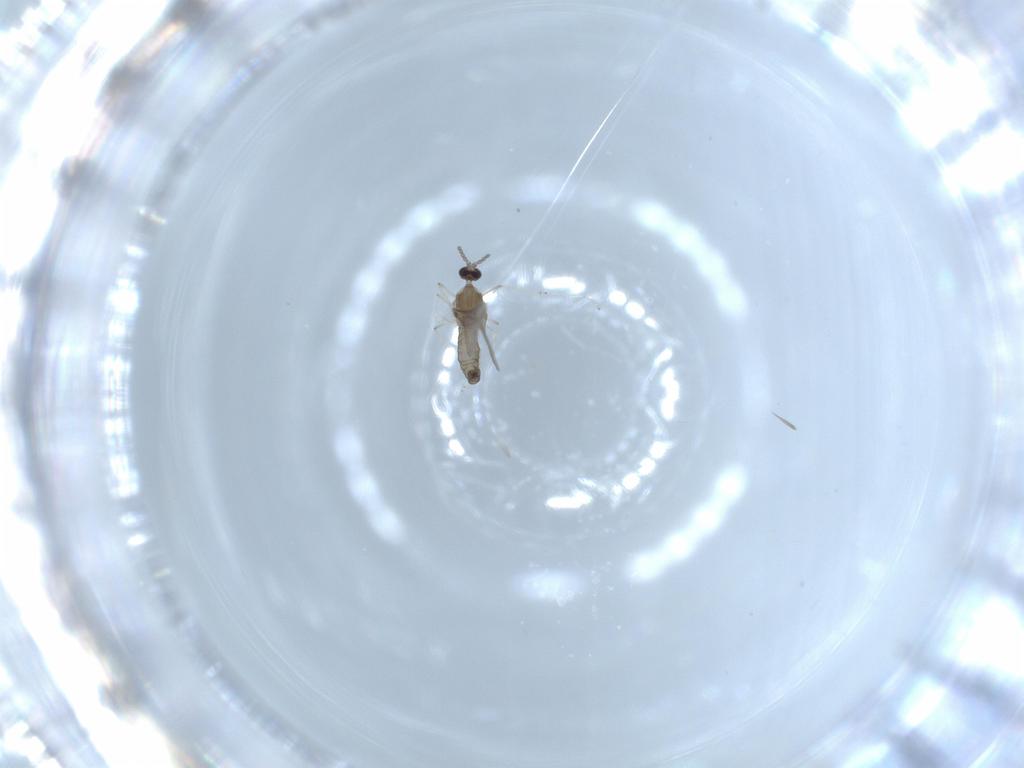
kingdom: Animalia
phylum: Arthropoda
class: Insecta
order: Diptera
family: Cecidomyiidae
